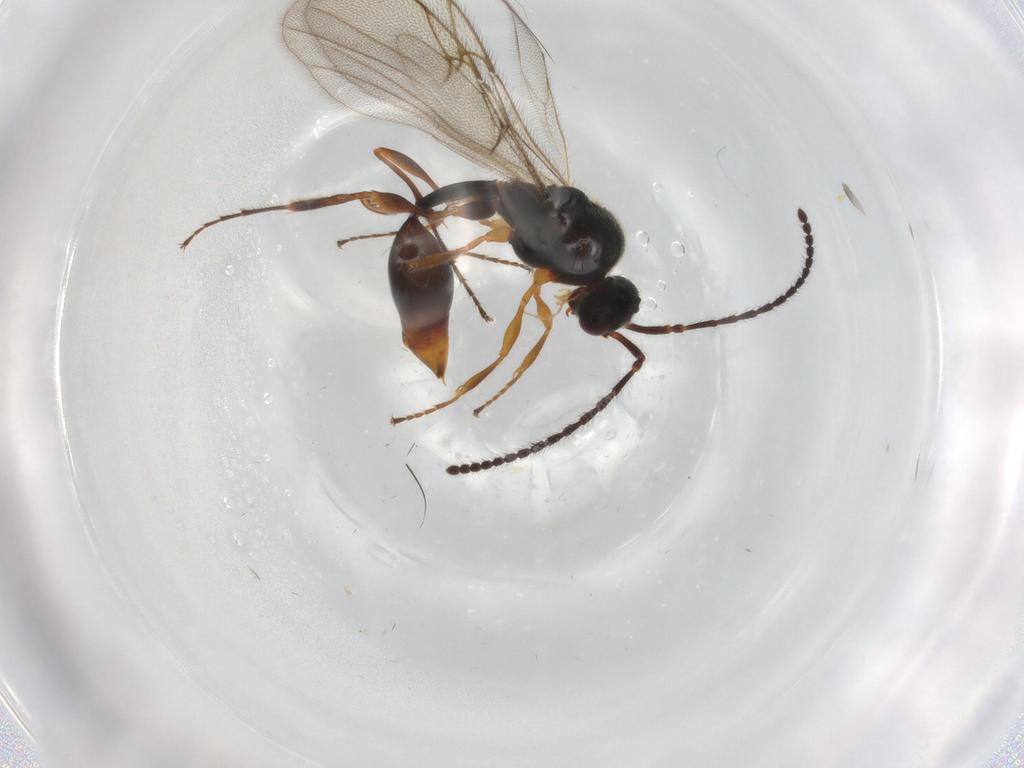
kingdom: Animalia
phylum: Arthropoda
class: Insecta
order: Hymenoptera
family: Diapriidae
